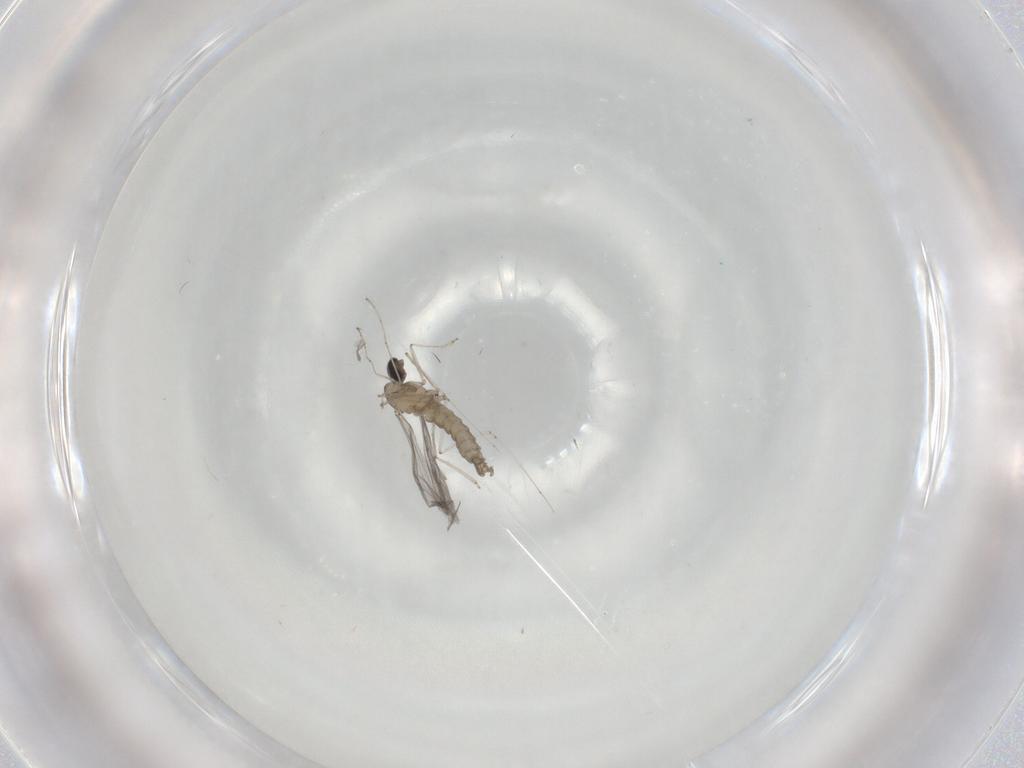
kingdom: Animalia
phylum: Arthropoda
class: Insecta
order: Diptera
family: Cecidomyiidae
